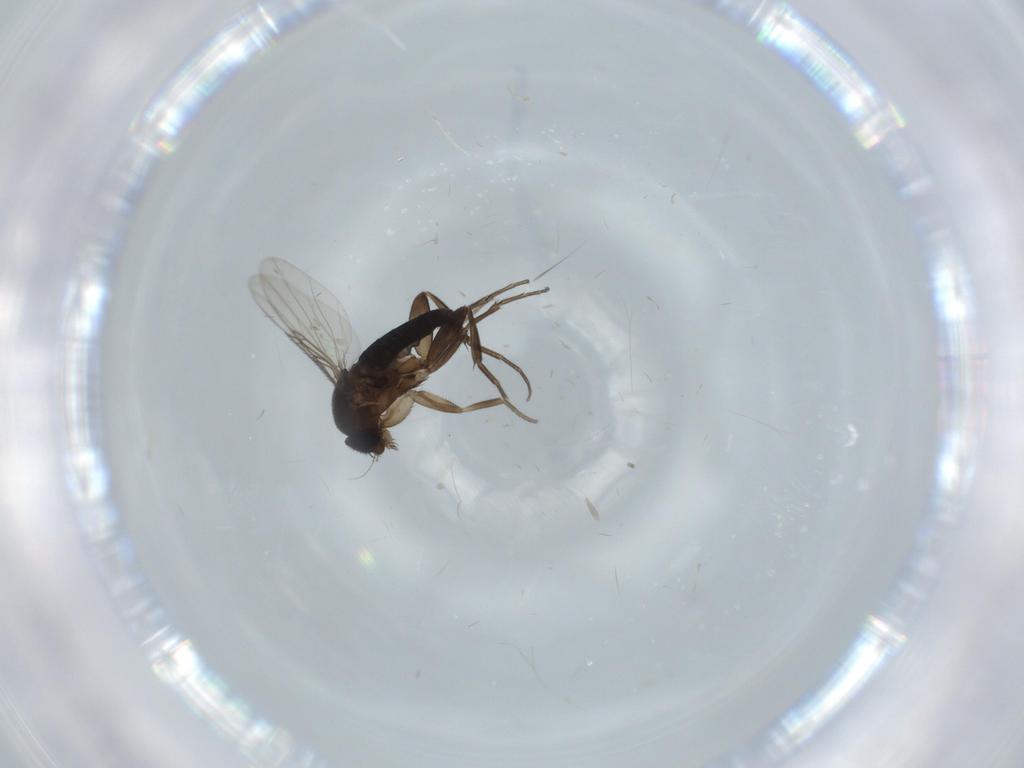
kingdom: Animalia
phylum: Arthropoda
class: Insecta
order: Diptera
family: Phoridae
